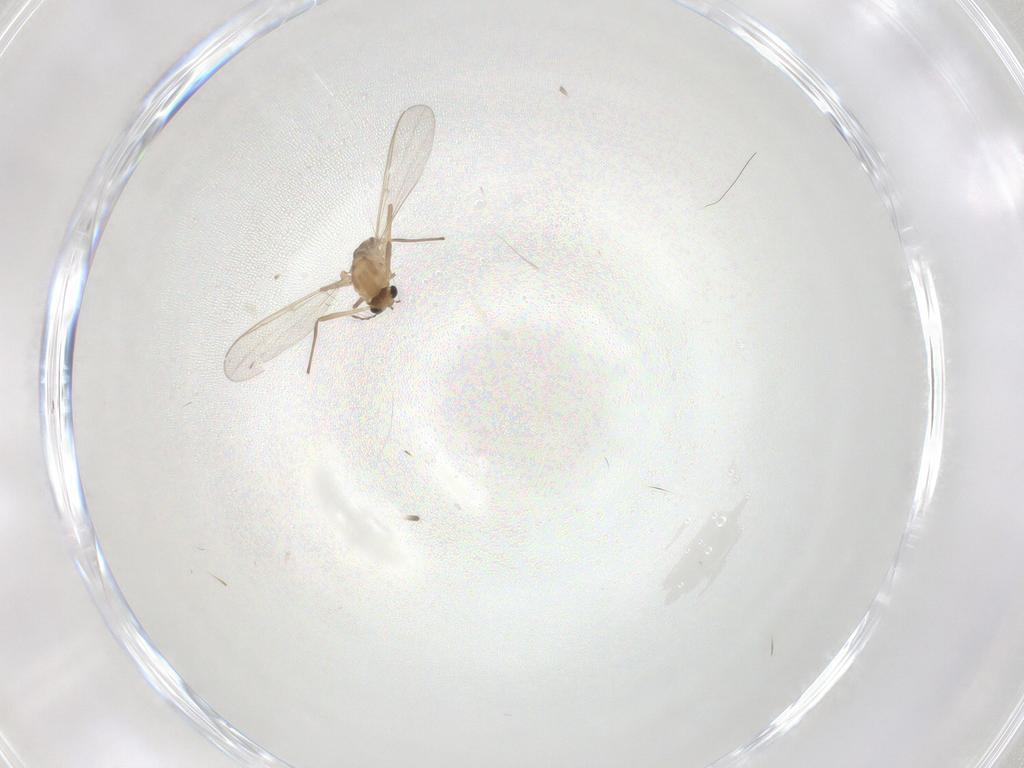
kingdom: Animalia
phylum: Arthropoda
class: Insecta
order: Diptera
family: Chironomidae
